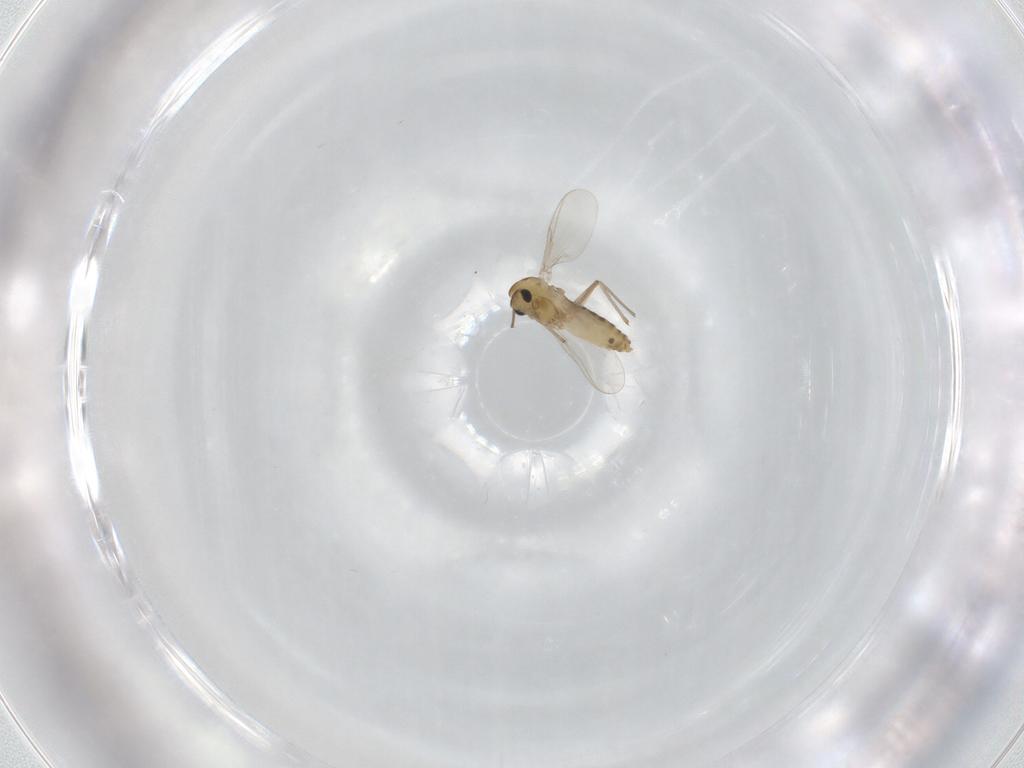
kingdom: Animalia
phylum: Arthropoda
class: Insecta
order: Diptera
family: Chironomidae
